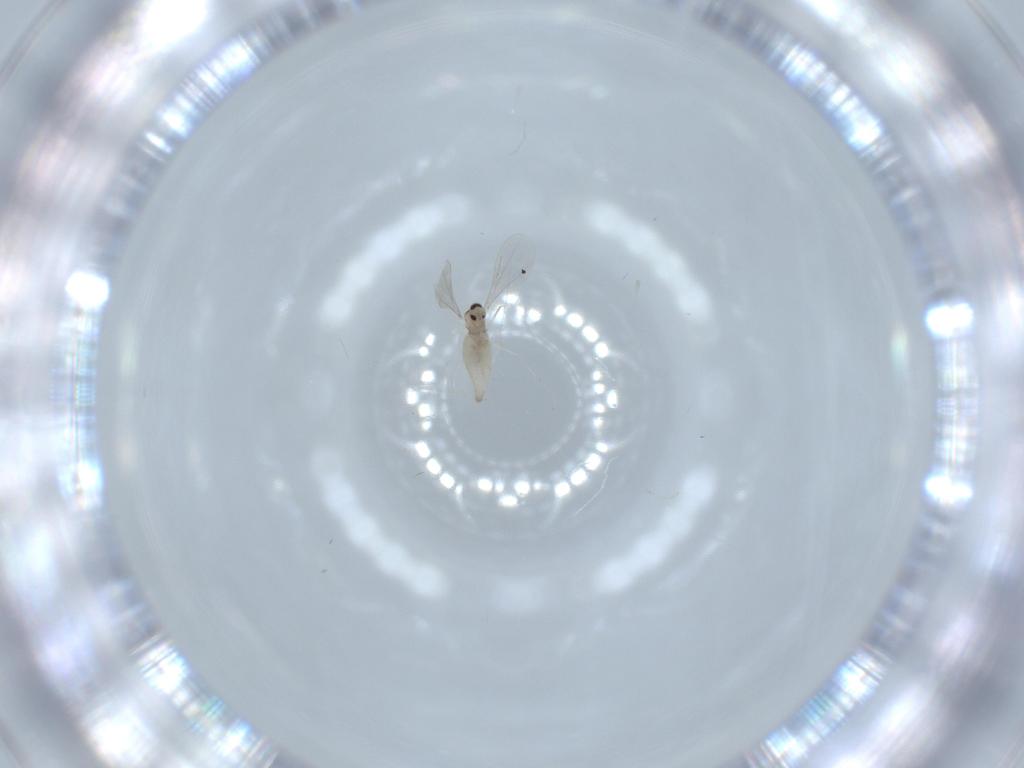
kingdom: Animalia
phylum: Arthropoda
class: Insecta
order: Diptera
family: Cecidomyiidae
